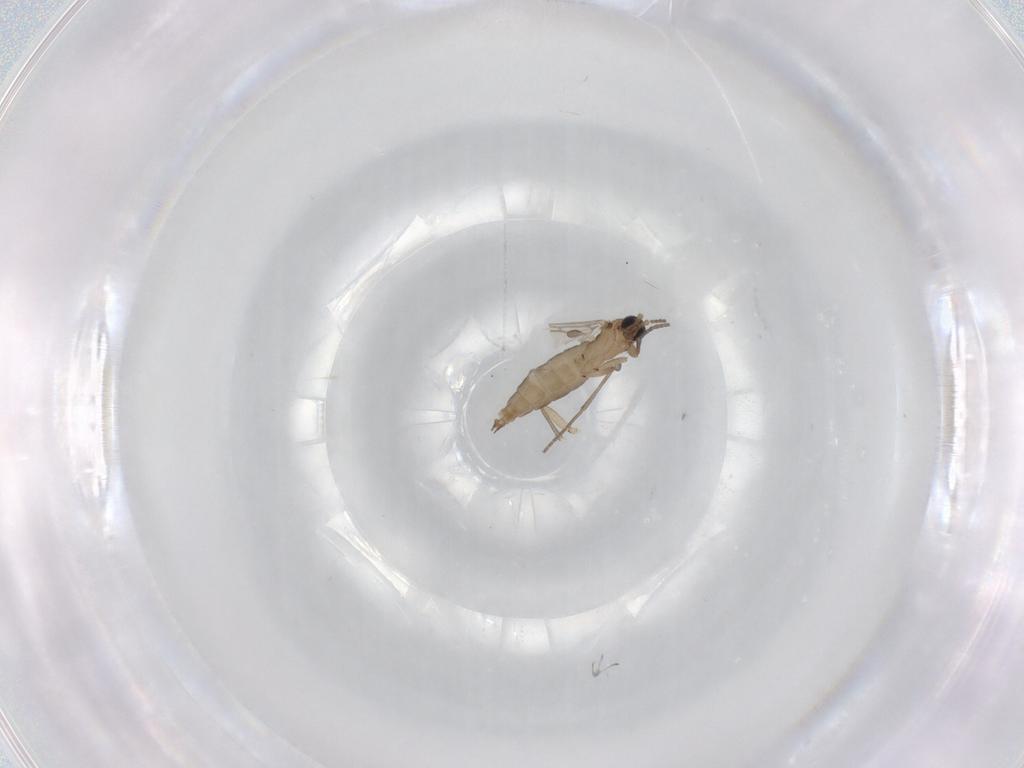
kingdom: Animalia
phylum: Arthropoda
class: Insecta
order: Diptera
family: Sciaridae
